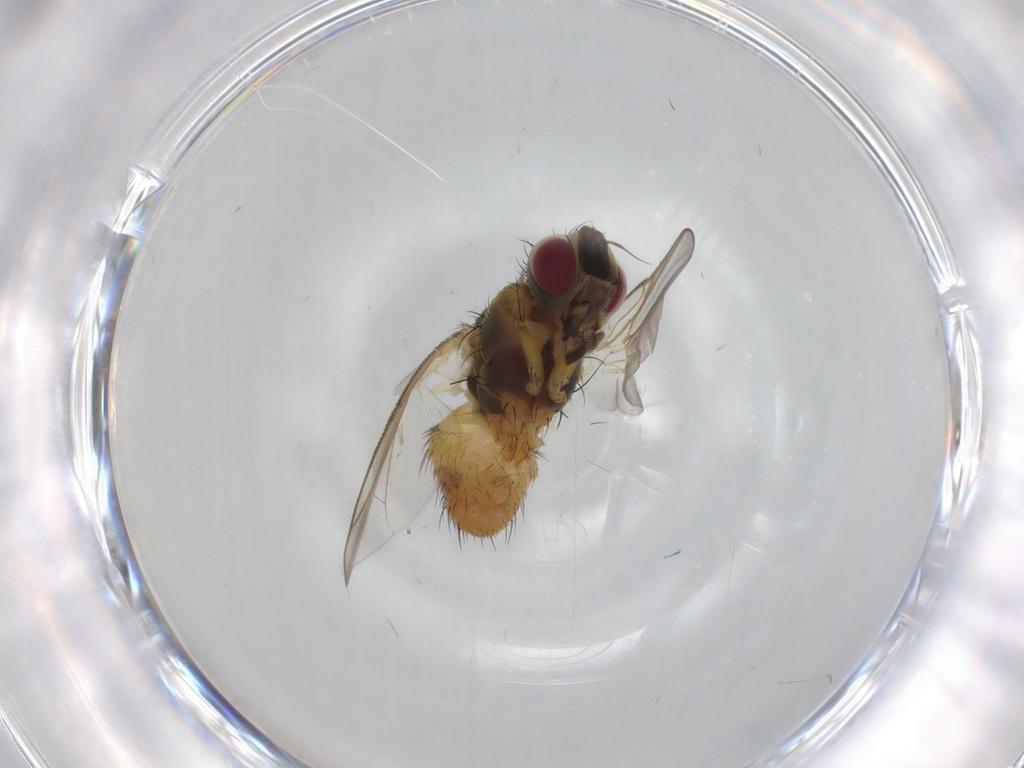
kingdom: Animalia
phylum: Arthropoda
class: Insecta
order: Diptera
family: Muscidae
